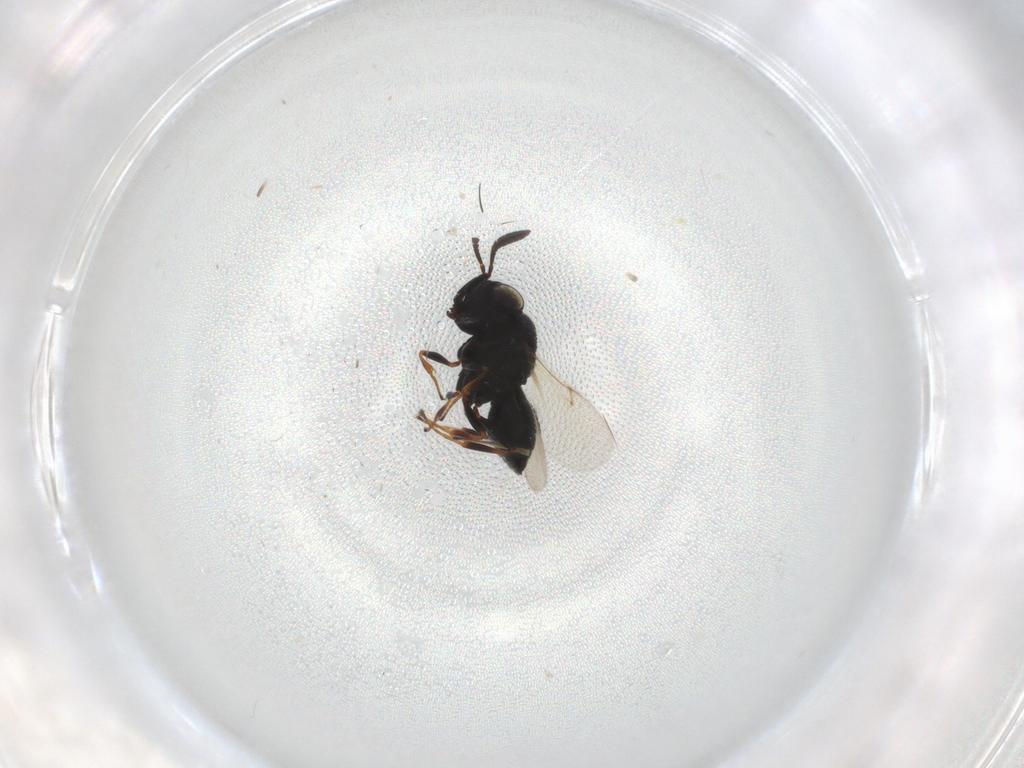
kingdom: Animalia
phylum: Arthropoda
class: Insecta
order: Hymenoptera
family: Scelionidae
